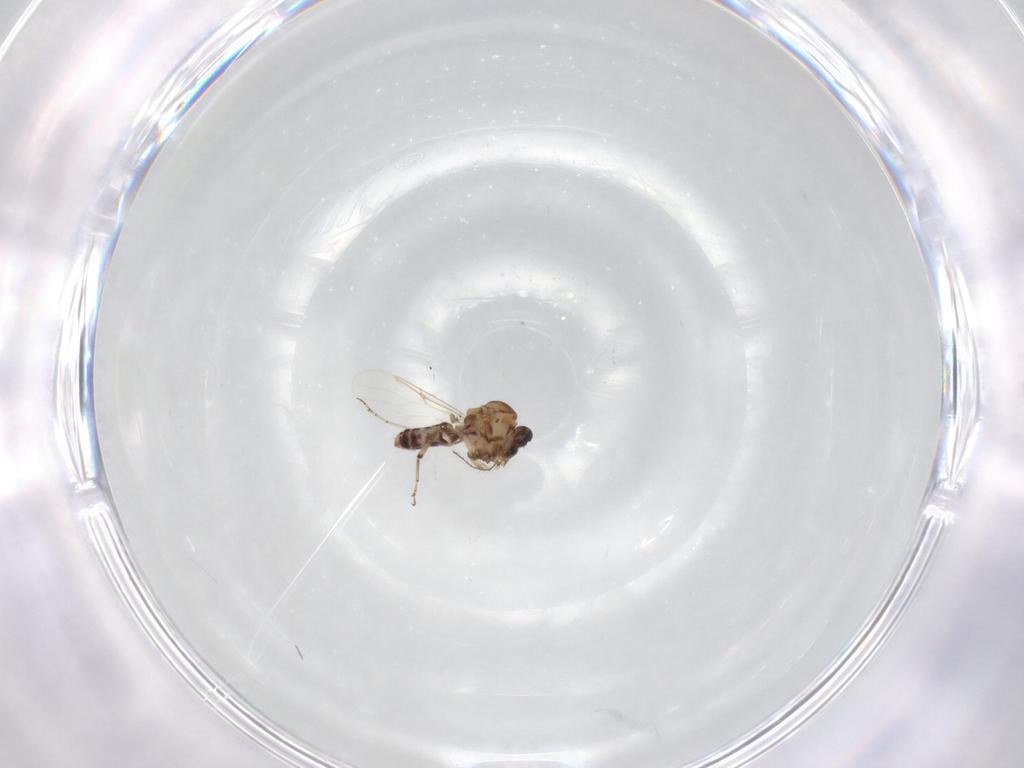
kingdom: Animalia
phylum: Arthropoda
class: Insecta
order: Diptera
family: Ceratopogonidae
